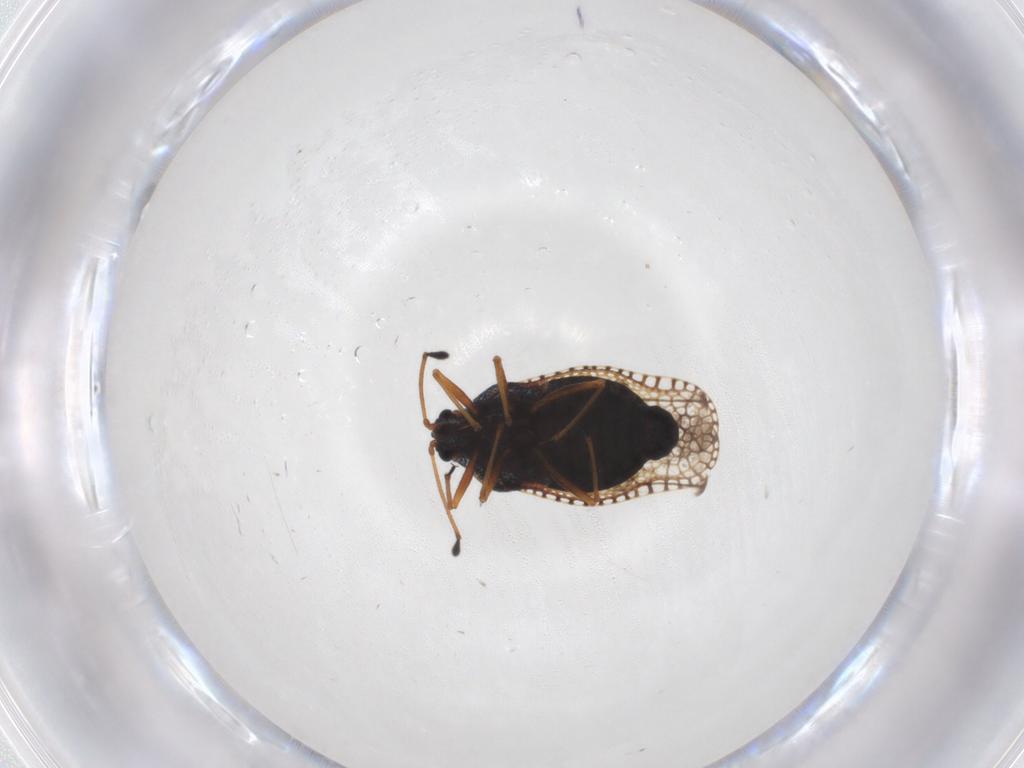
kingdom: Animalia
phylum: Arthropoda
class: Insecta
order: Hemiptera
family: Tingidae
